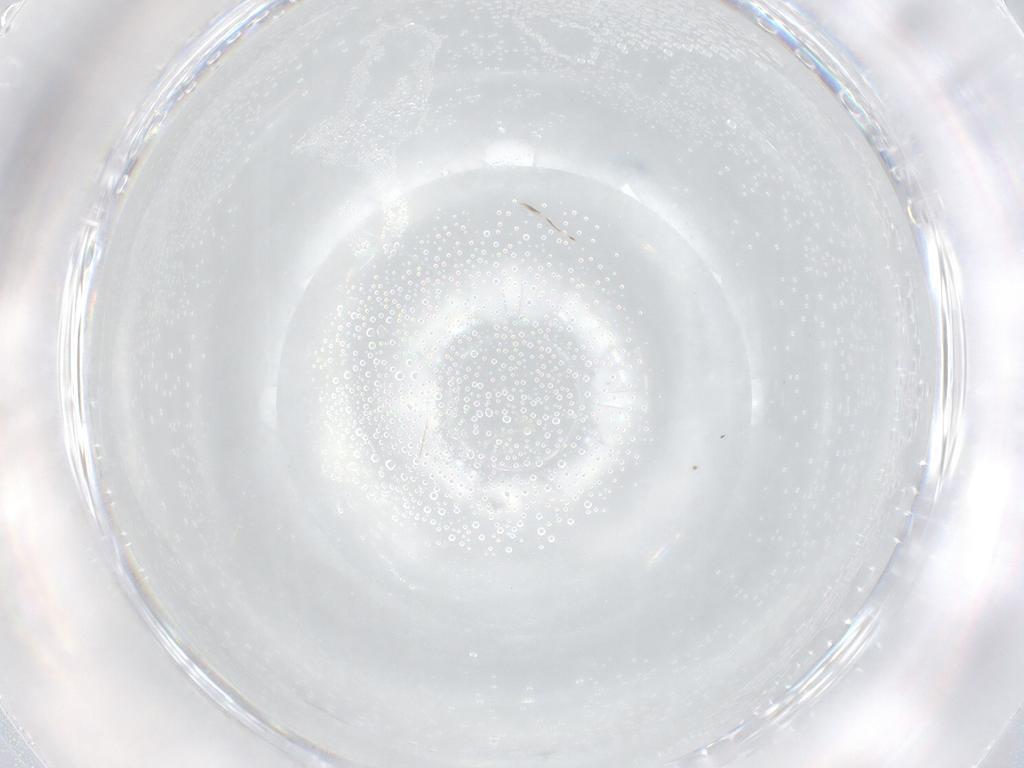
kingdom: Animalia
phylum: Arthropoda
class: Insecta
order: Hemiptera
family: Aleyrodidae
